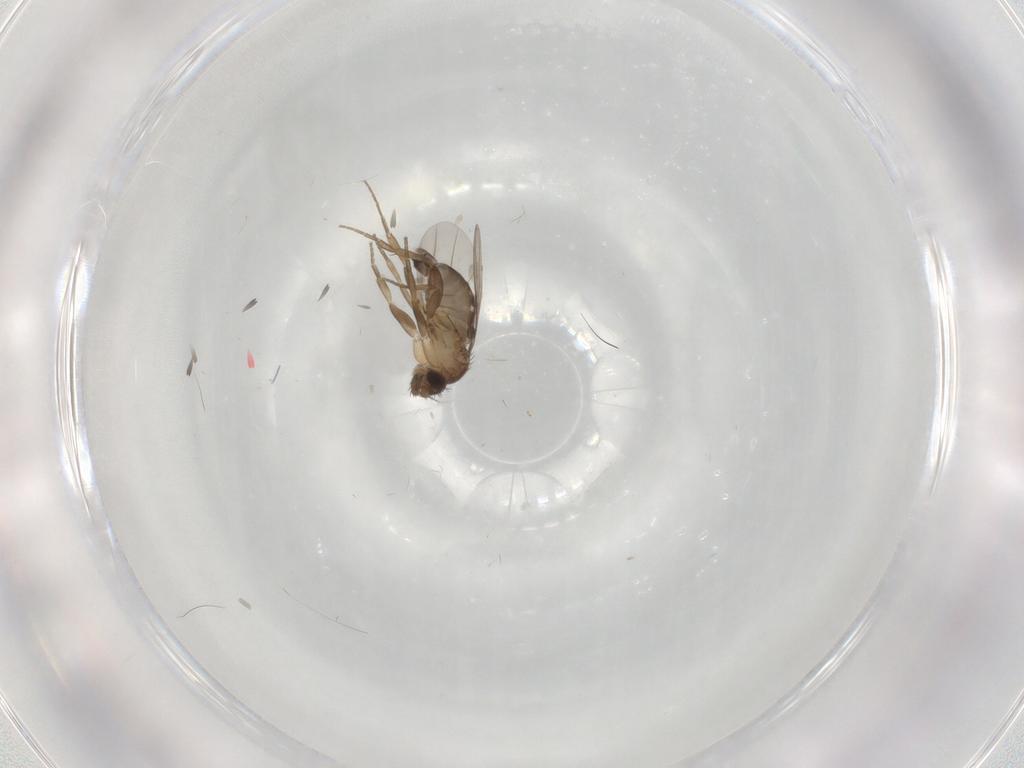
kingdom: Animalia
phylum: Arthropoda
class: Insecta
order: Diptera
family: Phoridae
